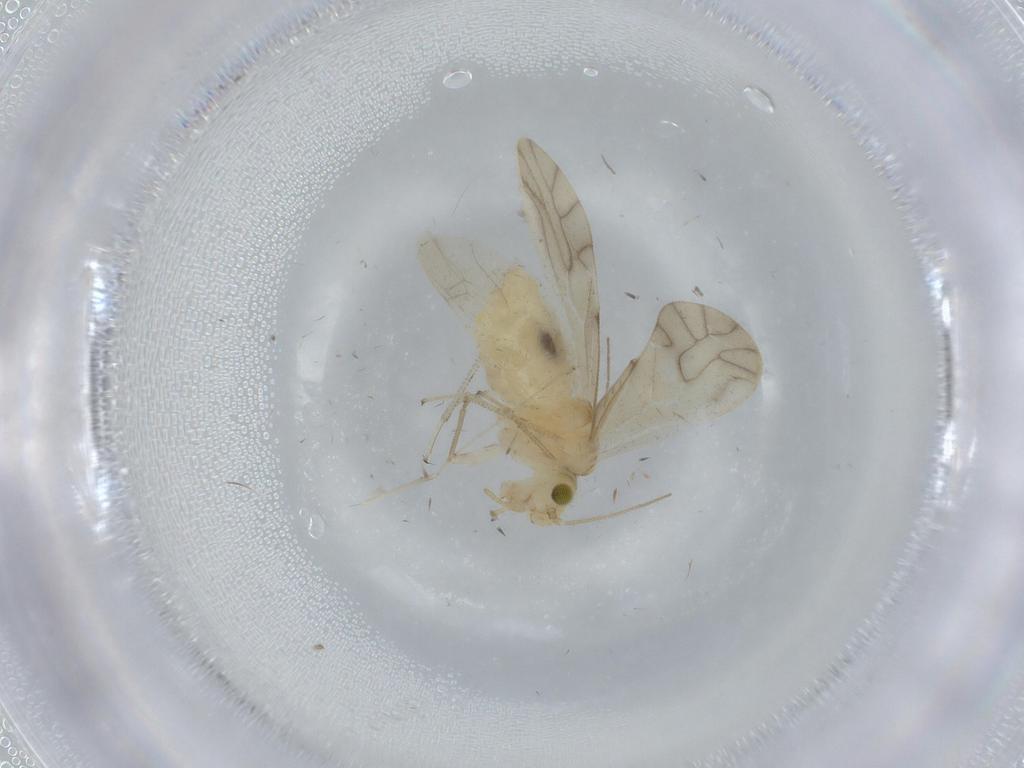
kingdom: Animalia
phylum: Arthropoda
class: Insecta
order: Psocodea
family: Caeciliusidae
